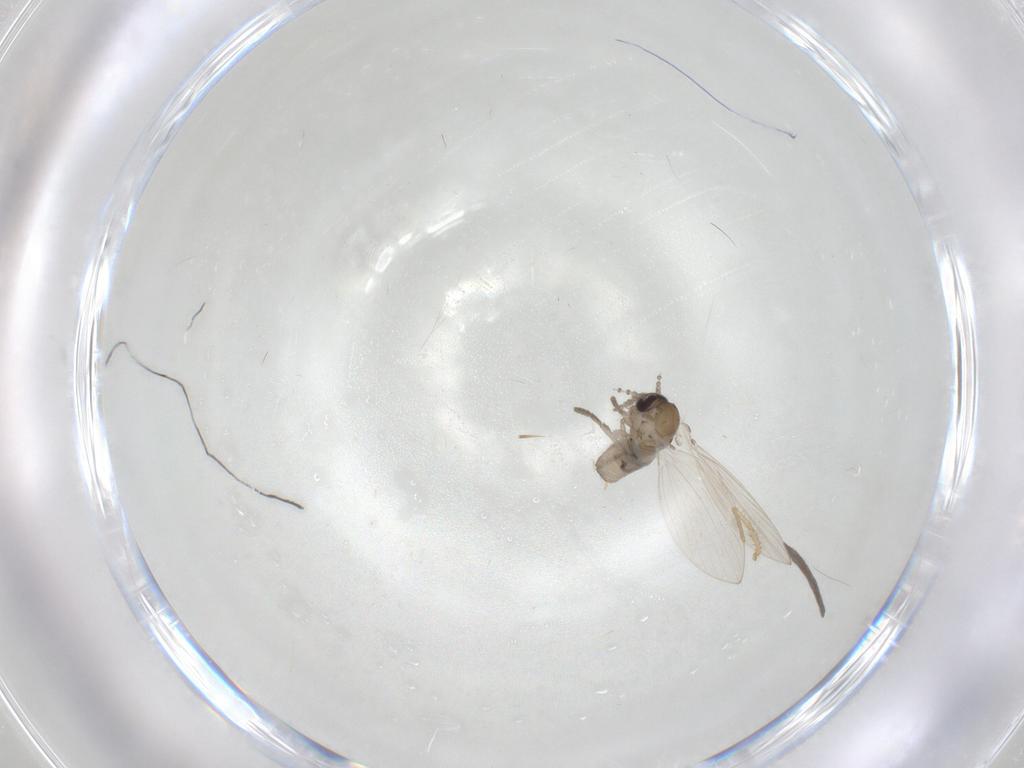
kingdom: Animalia
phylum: Arthropoda
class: Insecta
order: Diptera
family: Psychodidae
